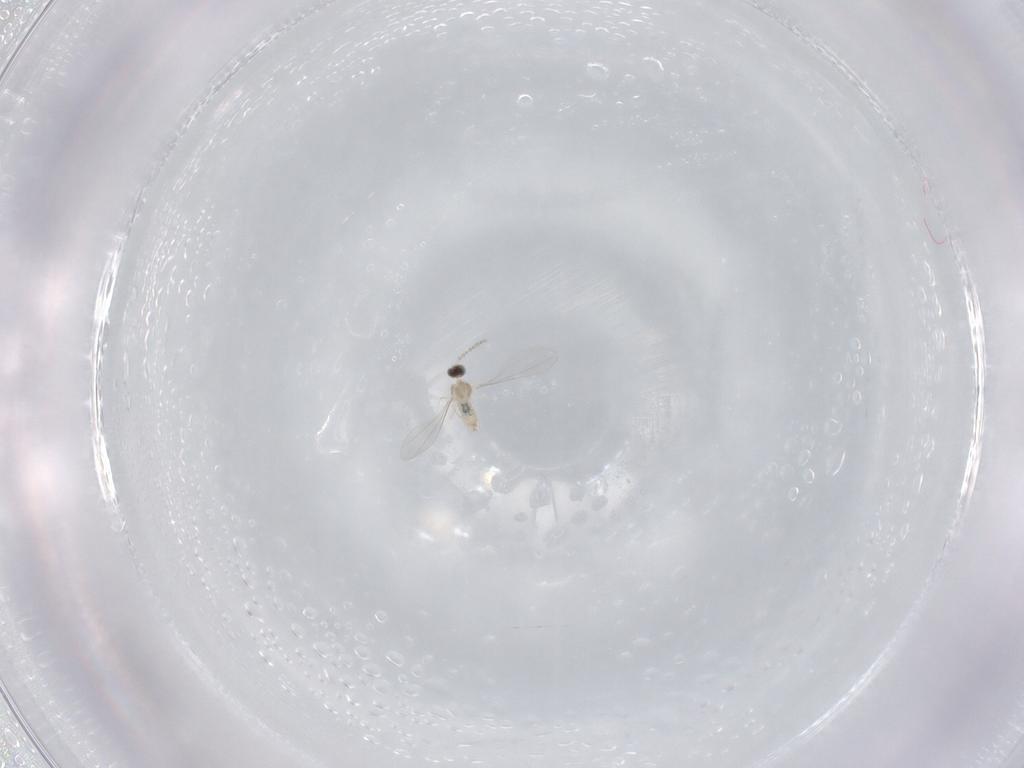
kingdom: Animalia
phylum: Arthropoda
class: Insecta
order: Diptera
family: Cecidomyiidae
